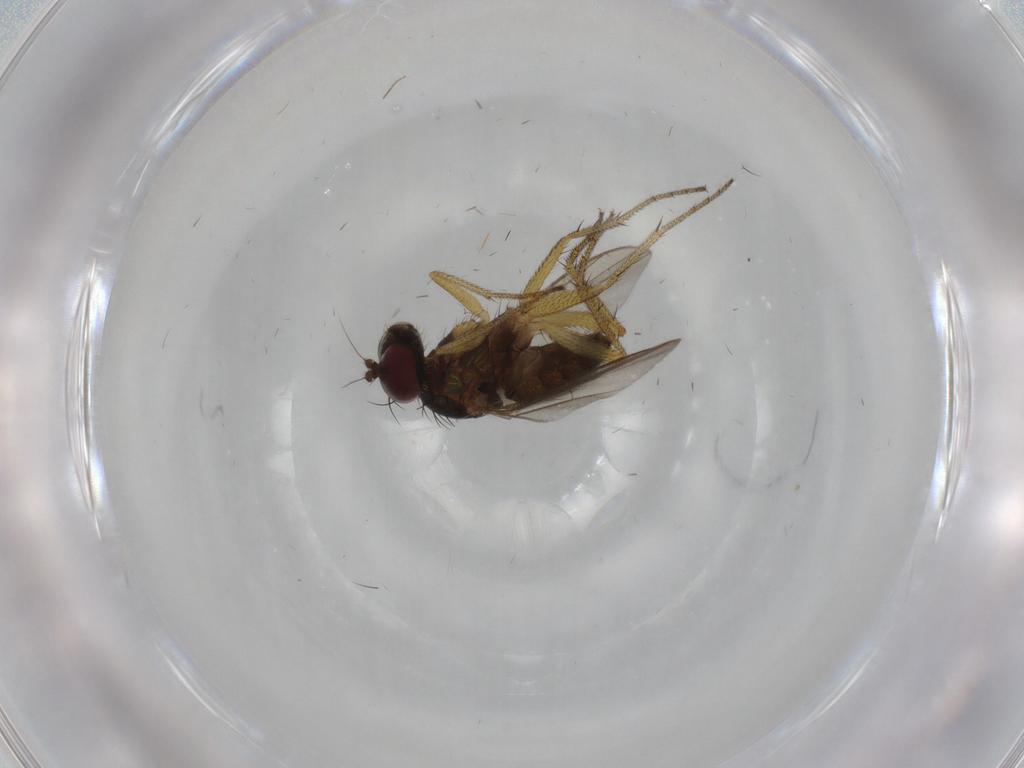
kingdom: Animalia
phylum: Arthropoda
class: Insecta
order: Diptera
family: Dolichopodidae
